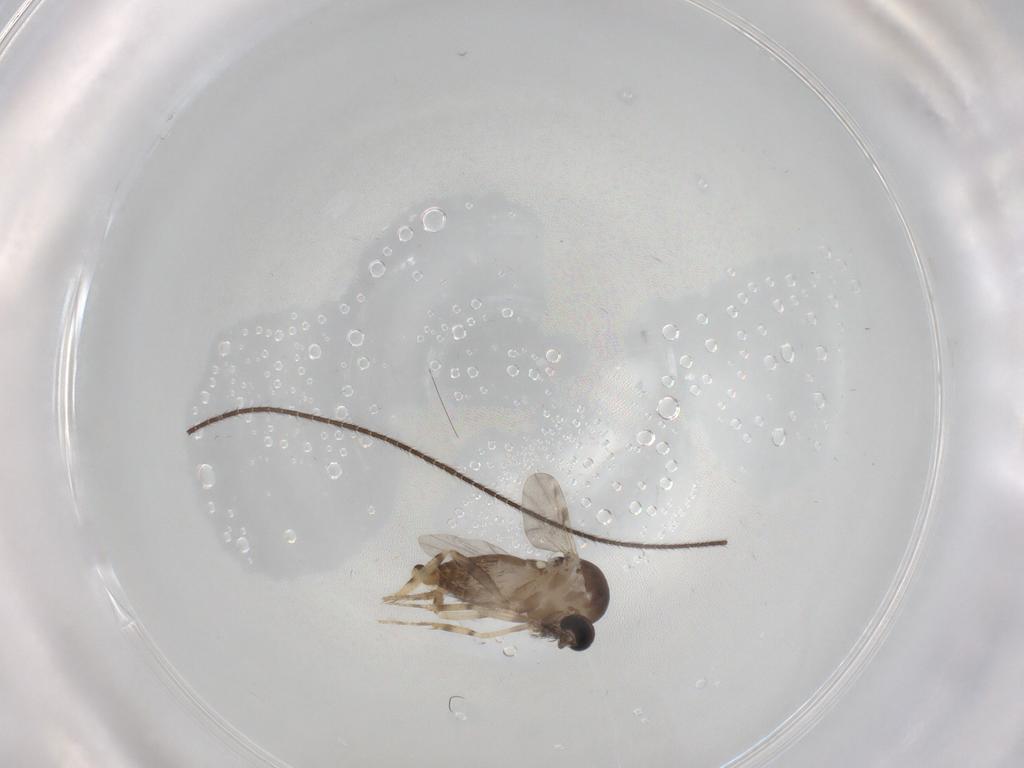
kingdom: Animalia
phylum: Arthropoda
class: Insecta
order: Diptera
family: Ceratopogonidae
